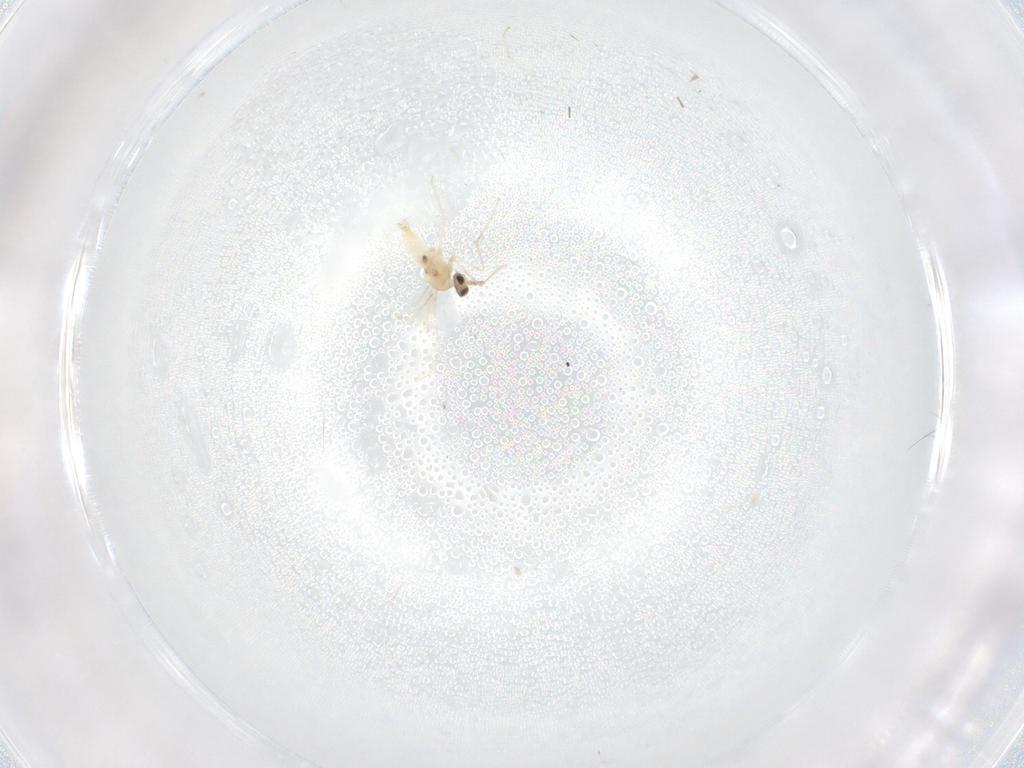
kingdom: Animalia
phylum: Arthropoda
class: Insecta
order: Diptera
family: Cecidomyiidae
